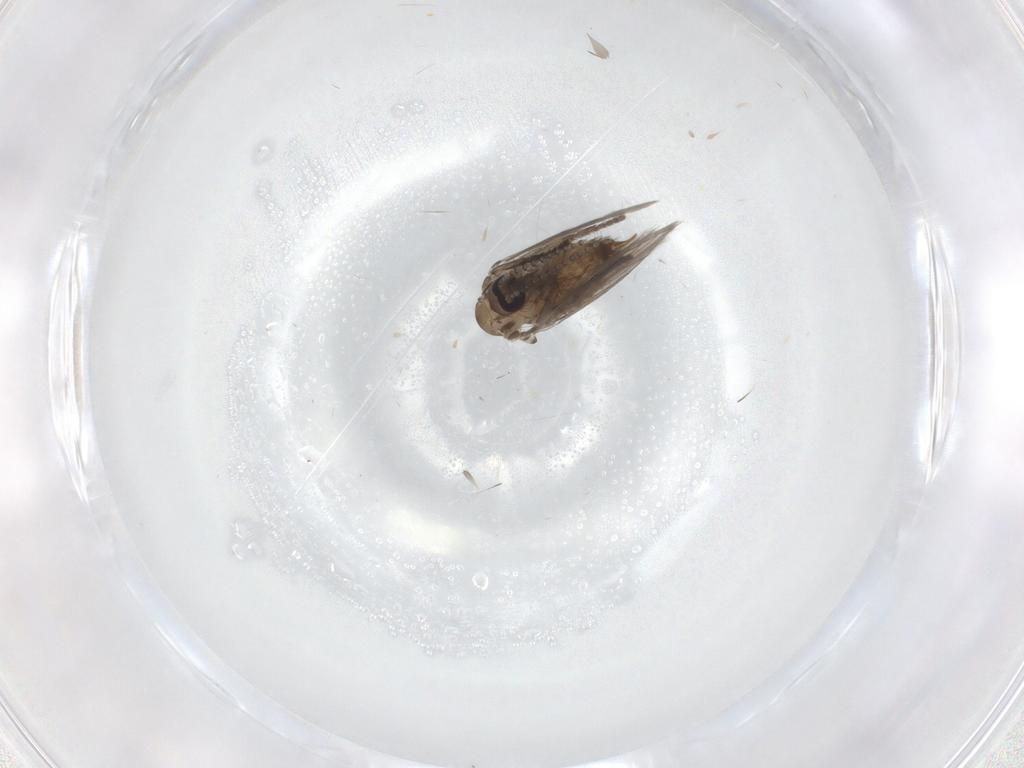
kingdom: Animalia
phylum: Arthropoda
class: Insecta
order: Diptera
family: Psychodidae
